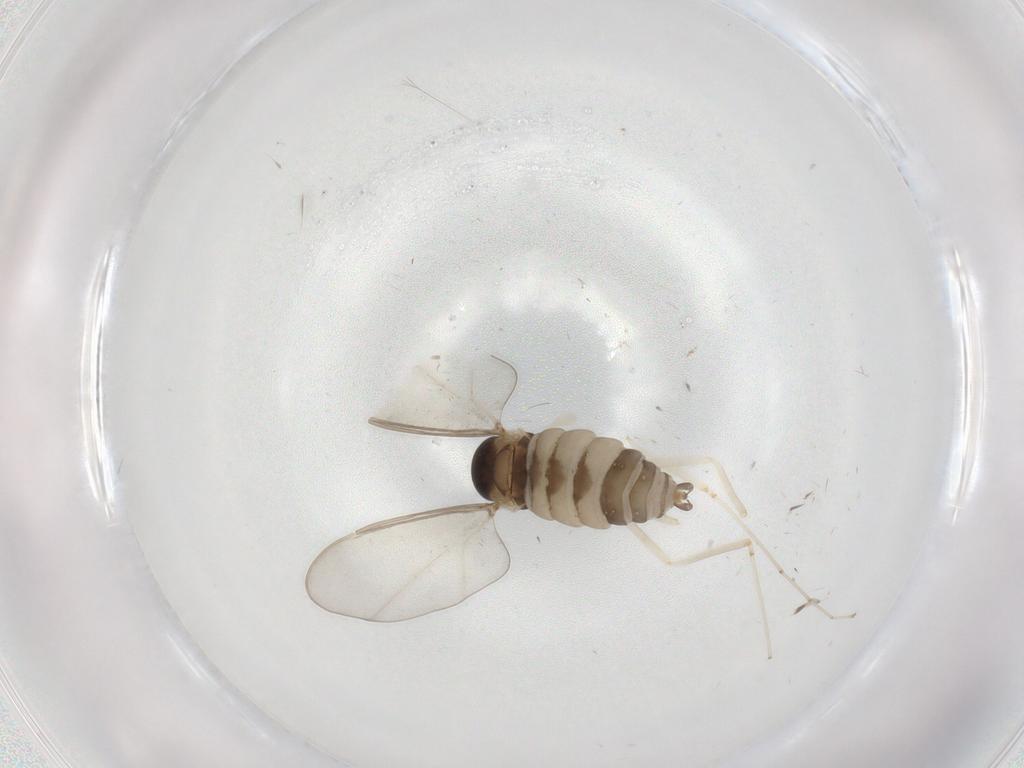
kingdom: Animalia
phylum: Arthropoda
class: Insecta
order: Diptera
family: Cecidomyiidae
